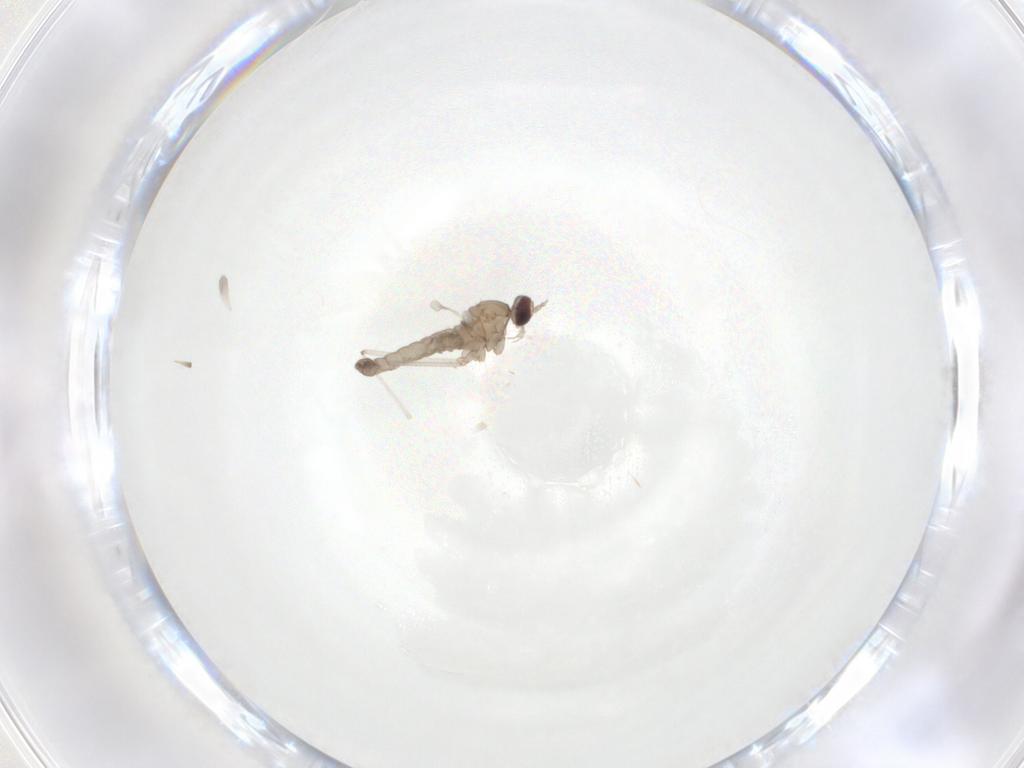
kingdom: Animalia
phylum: Arthropoda
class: Insecta
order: Diptera
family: Cecidomyiidae
